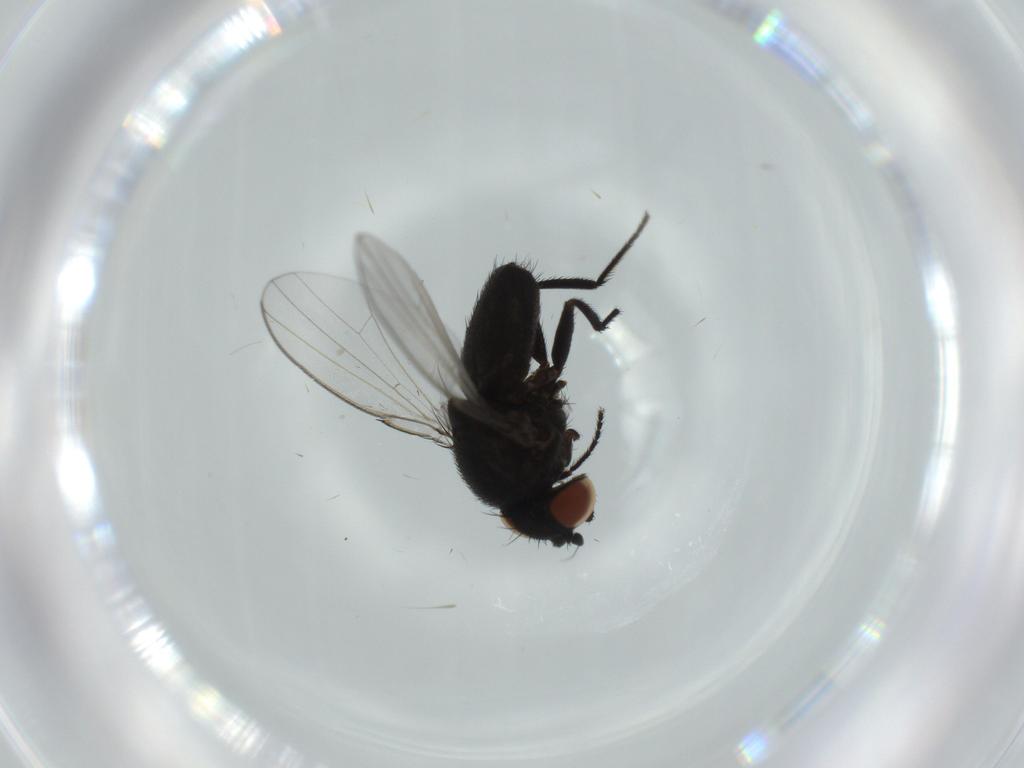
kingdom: Animalia
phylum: Arthropoda
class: Insecta
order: Diptera
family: Milichiidae
